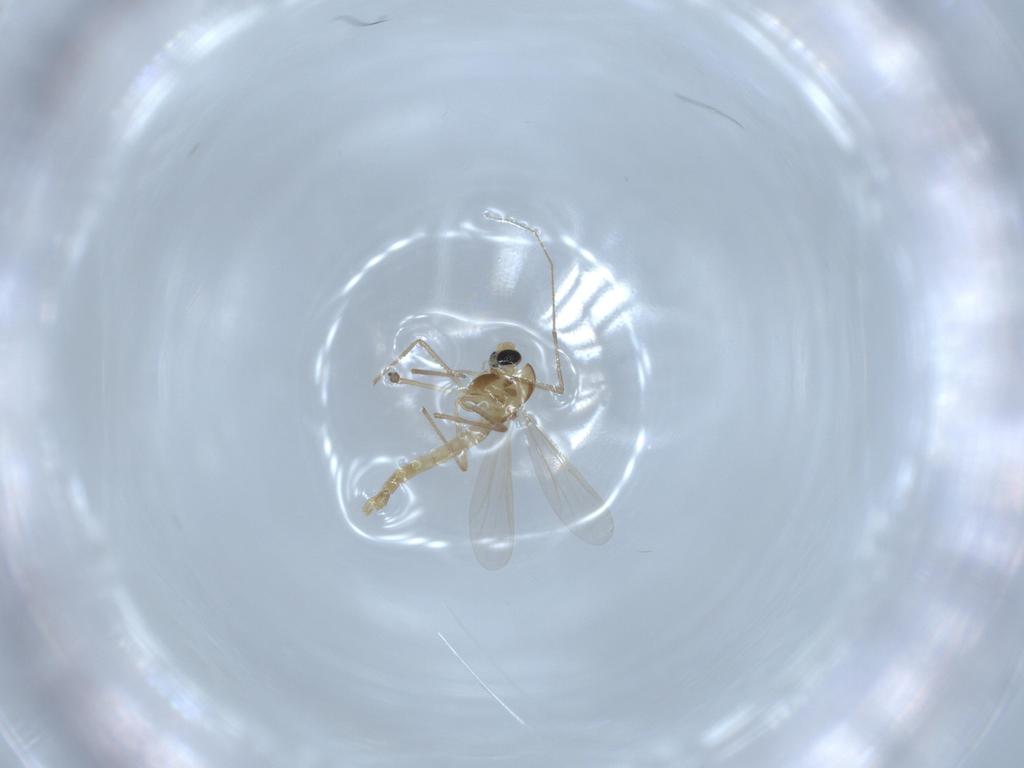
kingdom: Animalia
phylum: Arthropoda
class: Insecta
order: Diptera
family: Chironomidae
